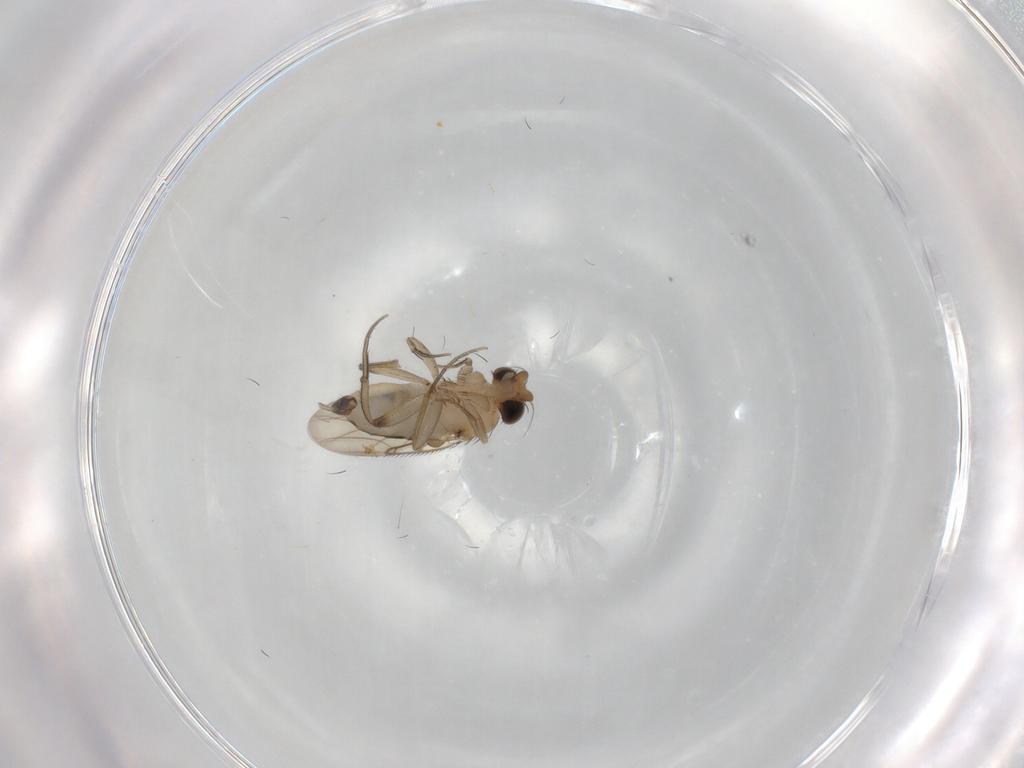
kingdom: Animalia
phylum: Arthropoda
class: Insecta
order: Diptera
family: Phoridae
